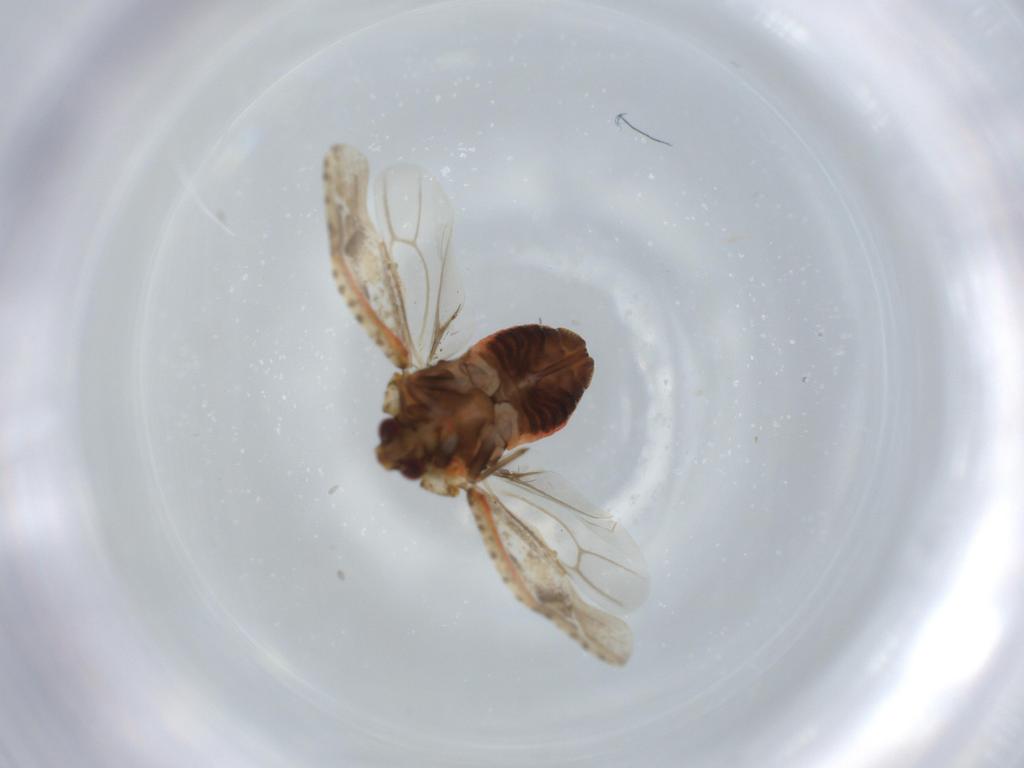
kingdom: Animalia
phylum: Arthropoda
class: Insecta
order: Hemiptera
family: Miridae
